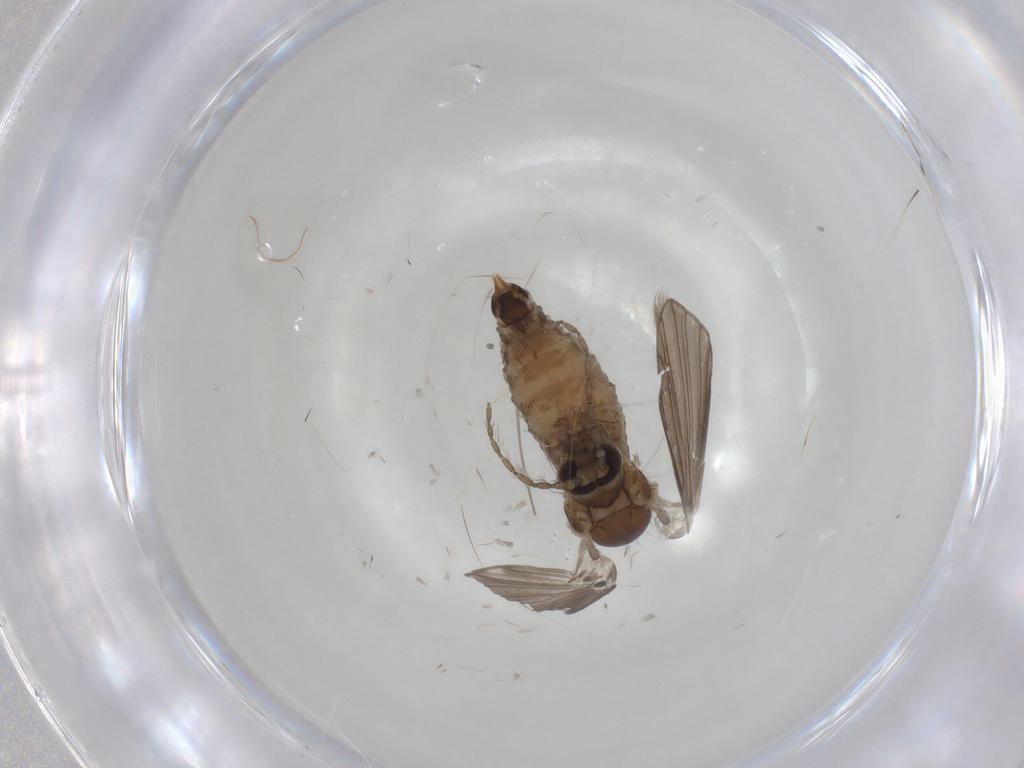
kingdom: Animalia
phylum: Arthropoda
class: Insecta
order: Diptera
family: Psychodidae
